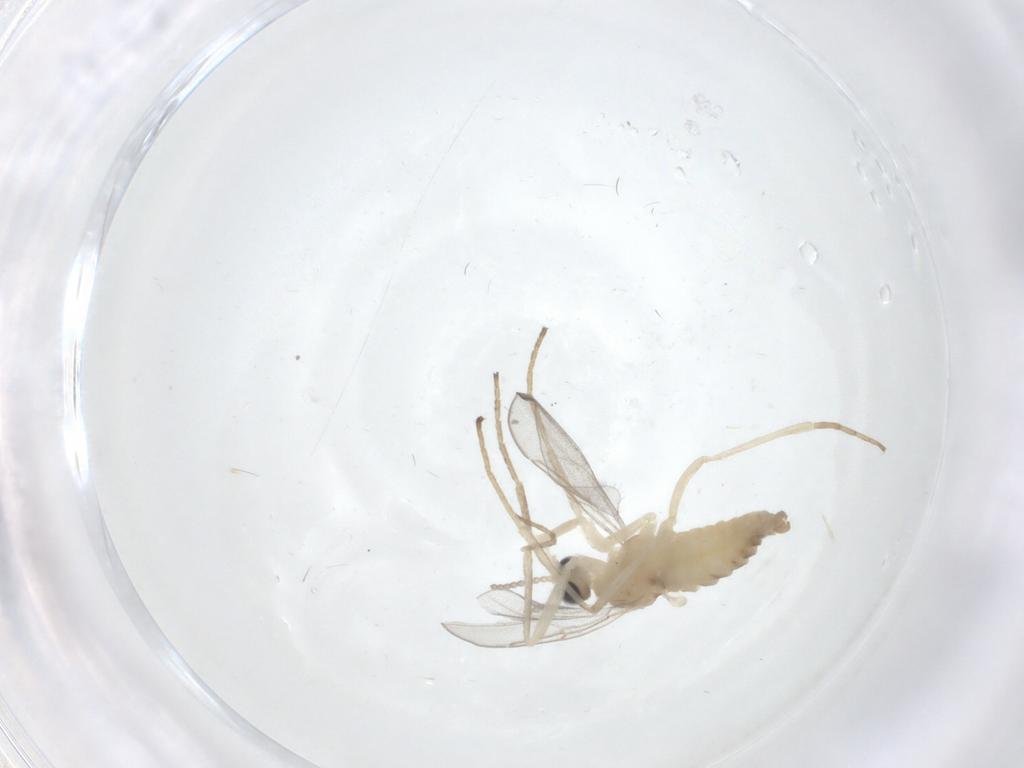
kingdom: Animalia
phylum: Arthropoda
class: Insecta
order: Diptera
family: Cecidomyiidae
